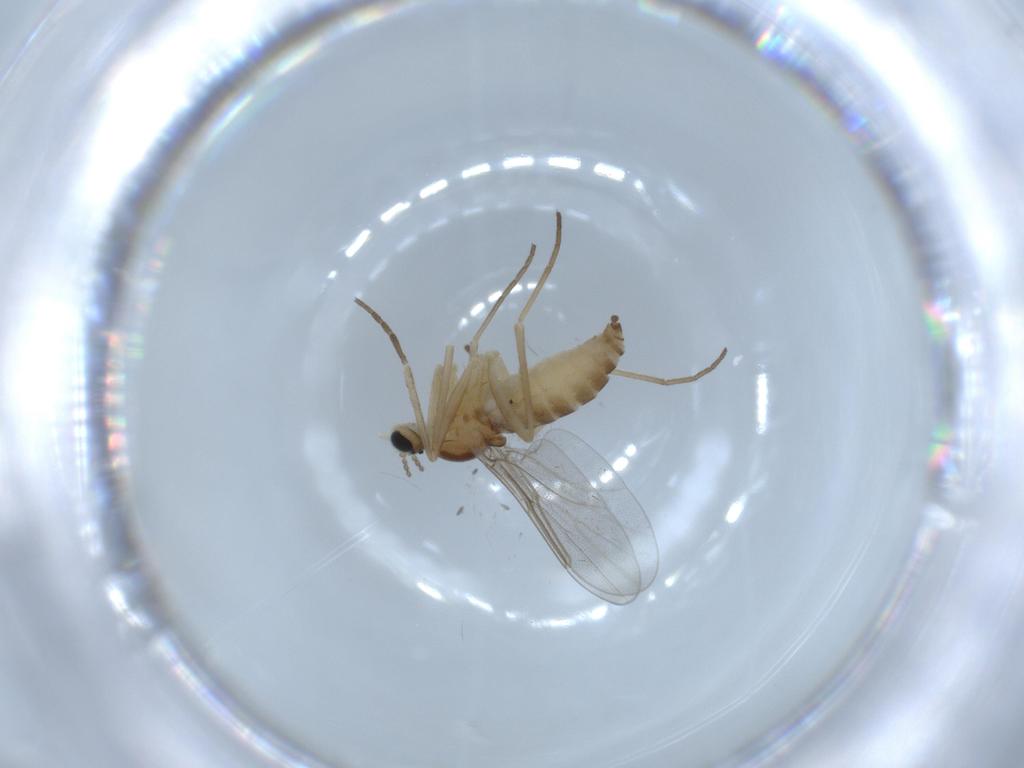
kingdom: Animalia
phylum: Arthropoda
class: Insecta
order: Diptera
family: Cecidomyiidae
